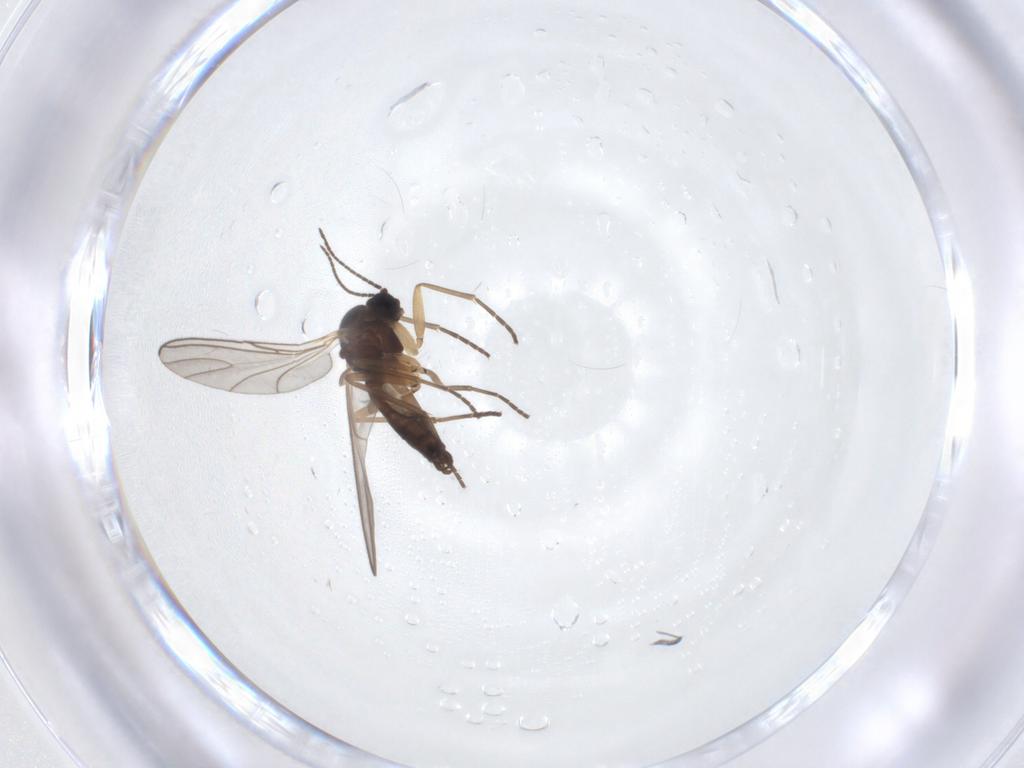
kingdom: Animalia
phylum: Arthropoda
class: Insecta
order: Diptera
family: Sciaridae
